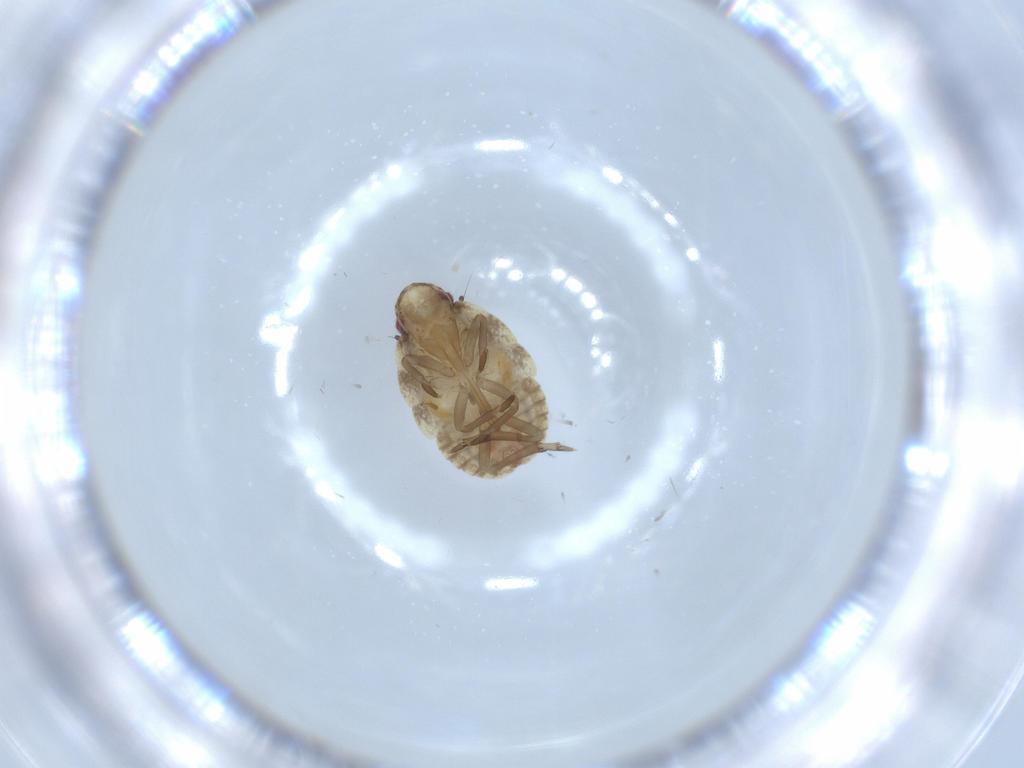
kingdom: Animalia
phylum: Arthropoda
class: Insecta
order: Hemiptera
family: Flatidae
